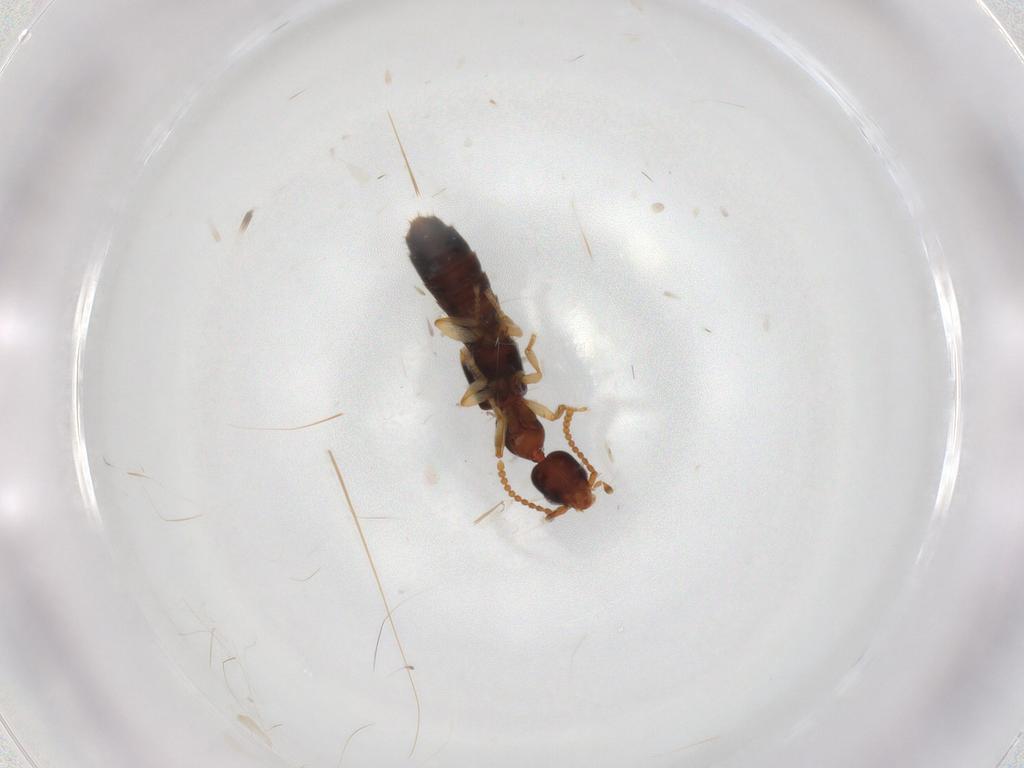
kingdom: Animalia
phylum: Arthropoda
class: Insecta
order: Coleoptera
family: Staphylinidae
